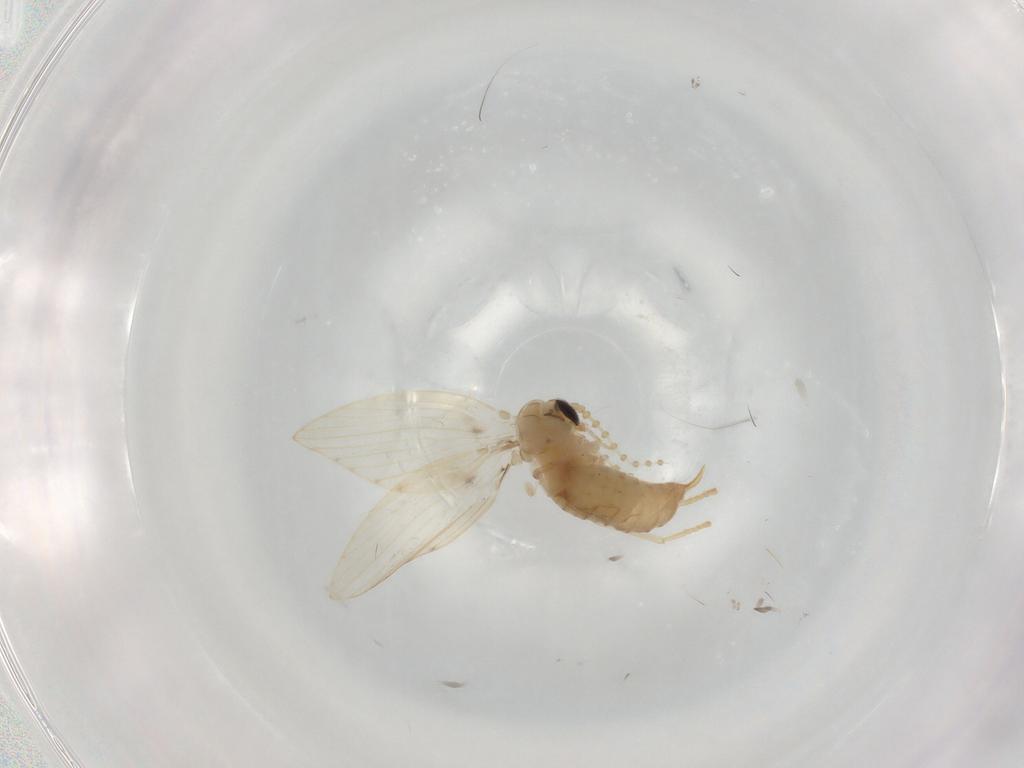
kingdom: Animalia
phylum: Arthropoda
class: Insecta
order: Diptera
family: Psychodidae
